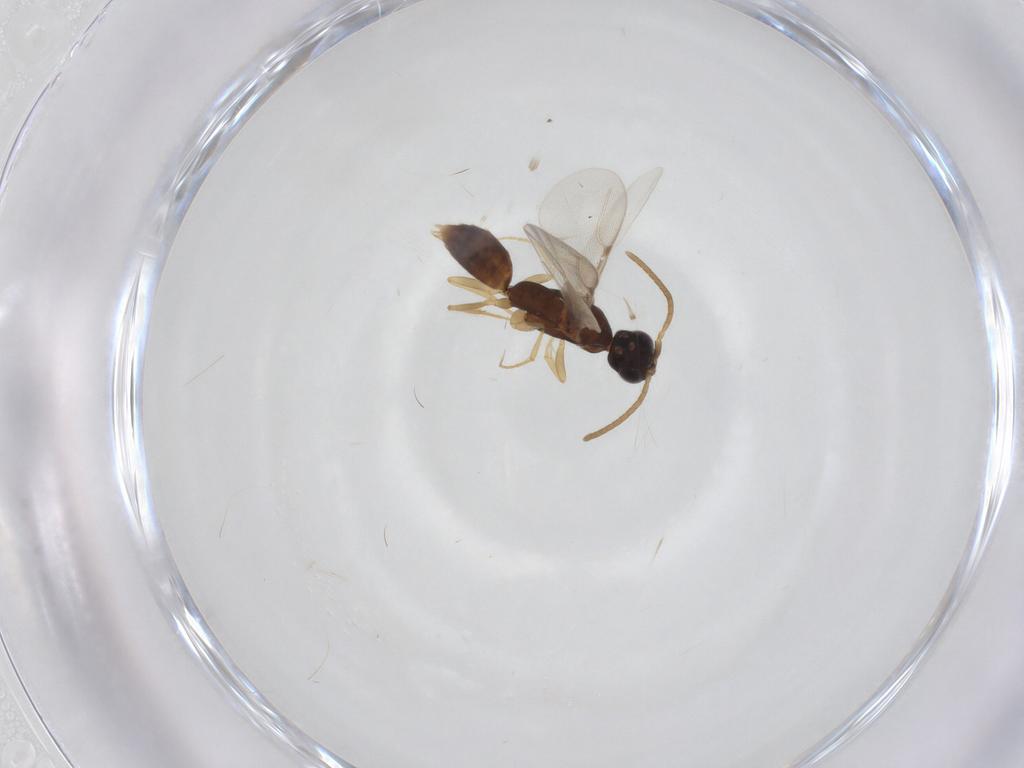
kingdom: Animalia
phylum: Arthropoda
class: Insecta
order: Hymenoptera
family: Bethylidae
